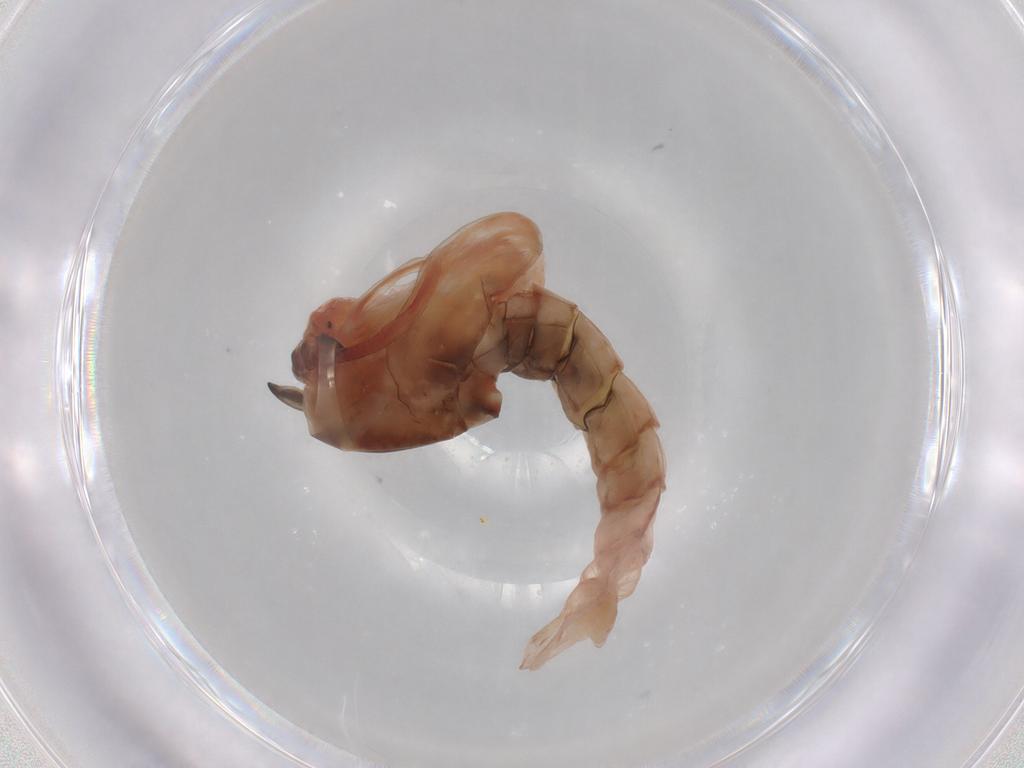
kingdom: Animalia
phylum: Arthropoda
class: Insecta
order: Diptera
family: Chironomidae
